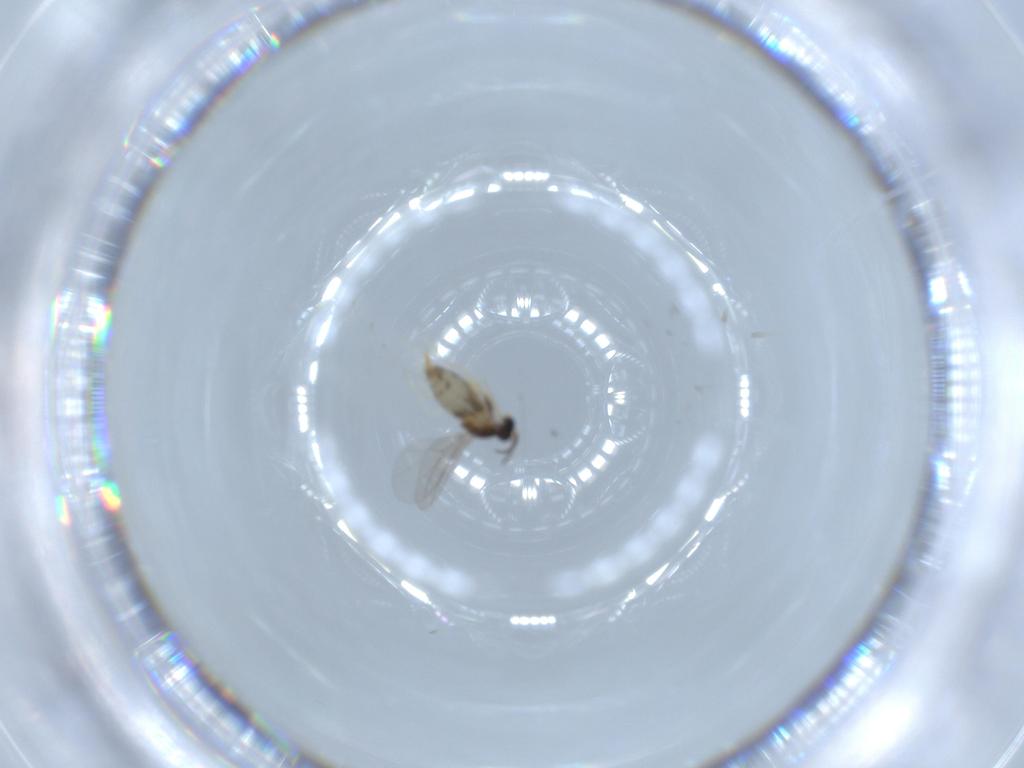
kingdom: Animalia
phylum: Arthropoda
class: Insecta
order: Diptera
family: Cecidomyiidae
